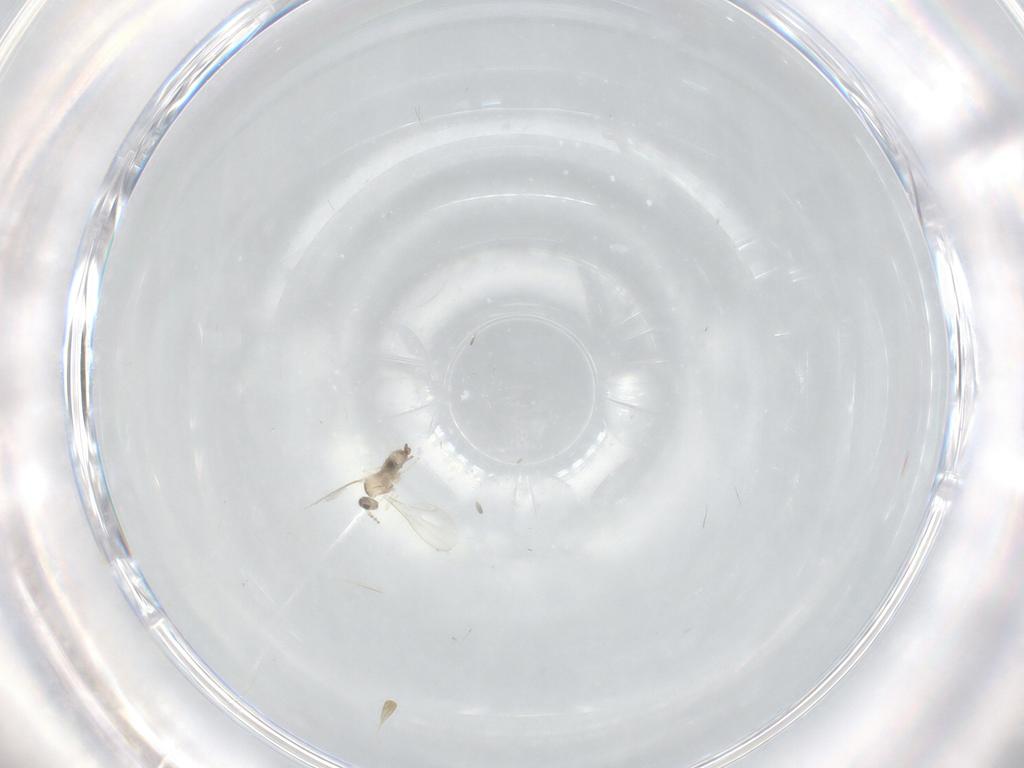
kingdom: Animalia
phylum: Arthropoda
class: Insecta
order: Diptera
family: Cecidomyiidae
